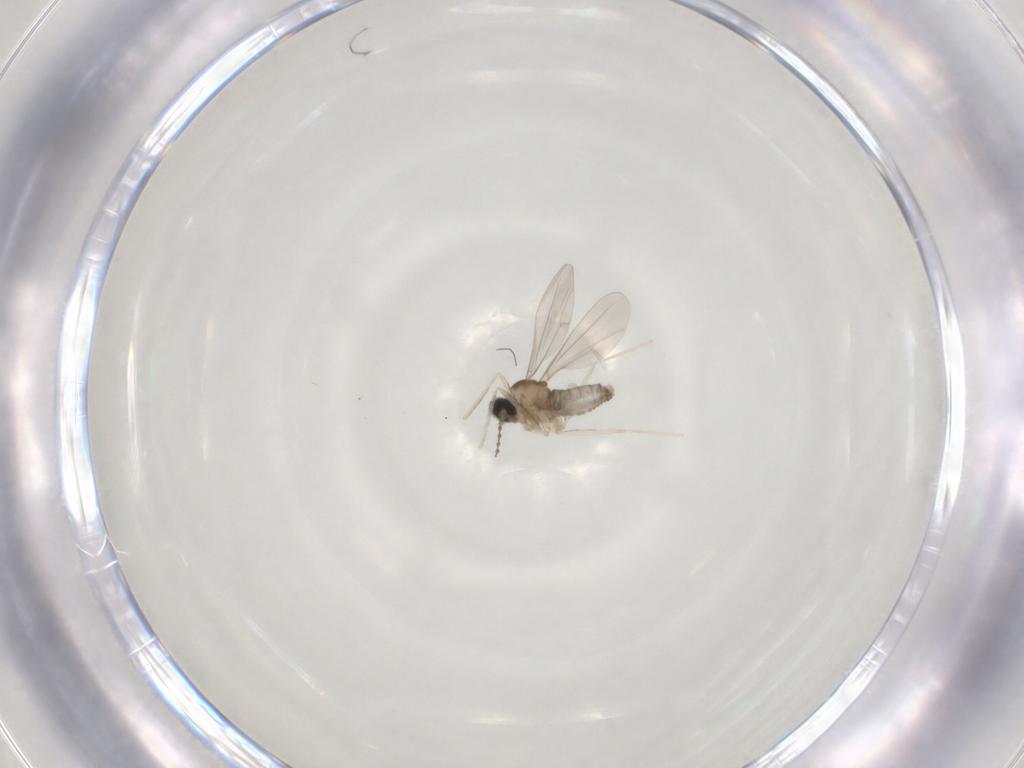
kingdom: Animalia
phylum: Arthropoda
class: Insecta
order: Diptera
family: Cecidomyiidae
